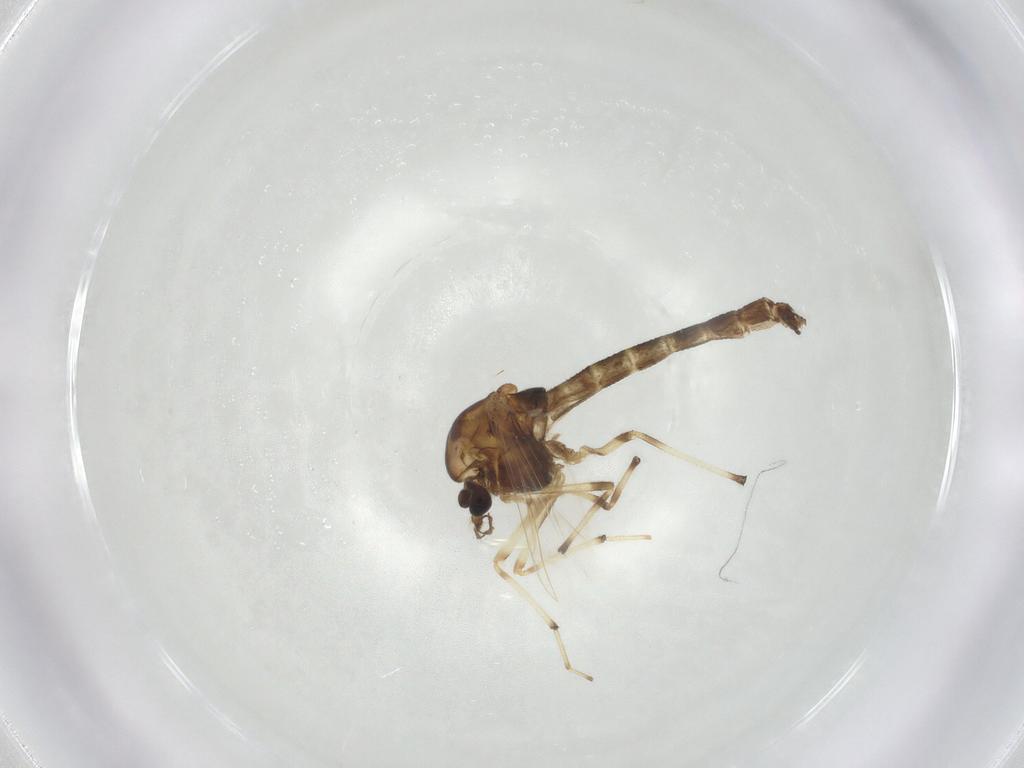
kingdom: Animalia
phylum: Arthropoda
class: Insecta
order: Diptera
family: Chironomidae
